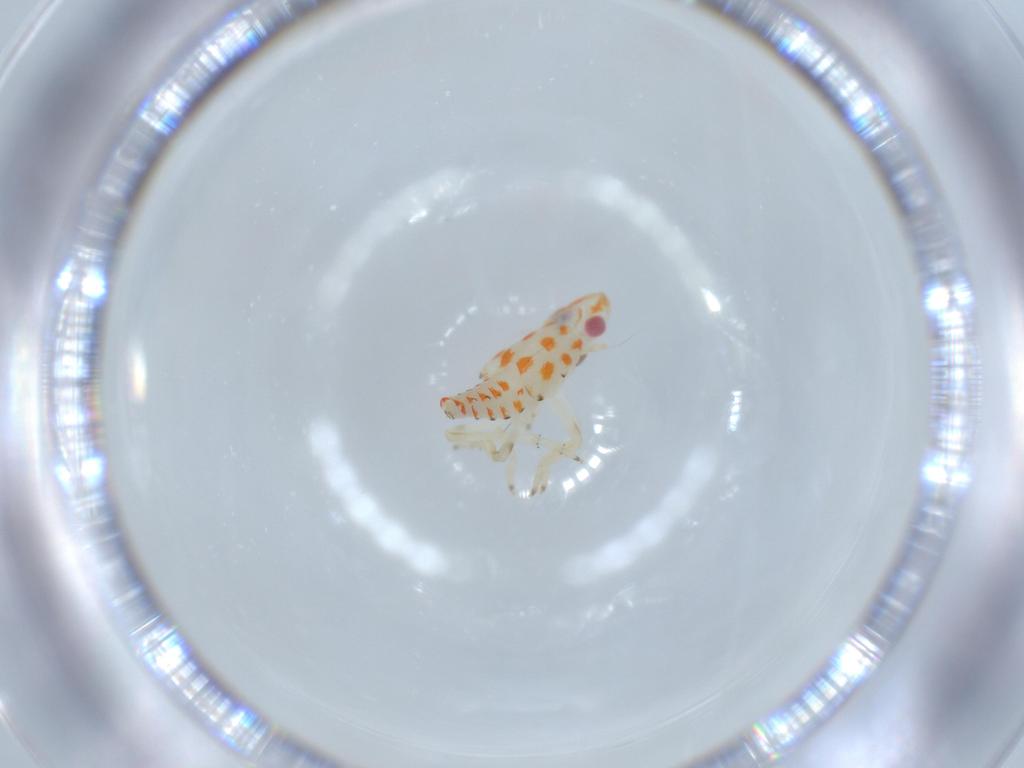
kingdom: Animalia
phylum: Arthropoda
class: Insecta
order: Hemiptera
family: Tropiduchidae
